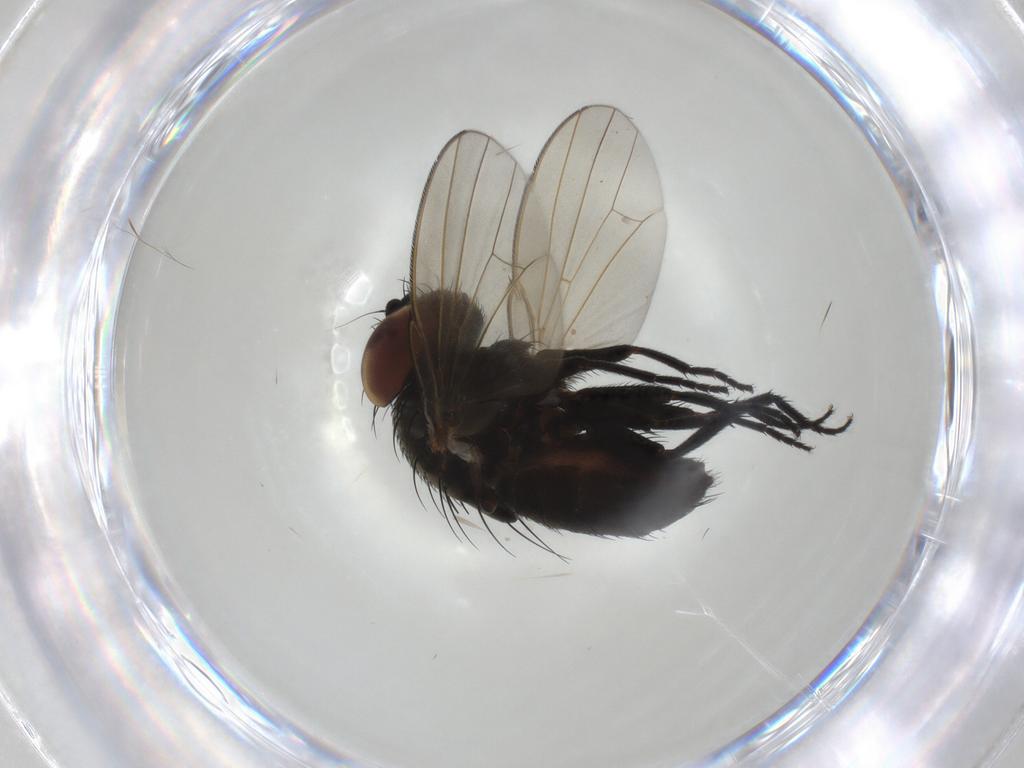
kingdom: Animalia
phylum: Arthropoda
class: Insecta
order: Diptera
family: Milichiidae
